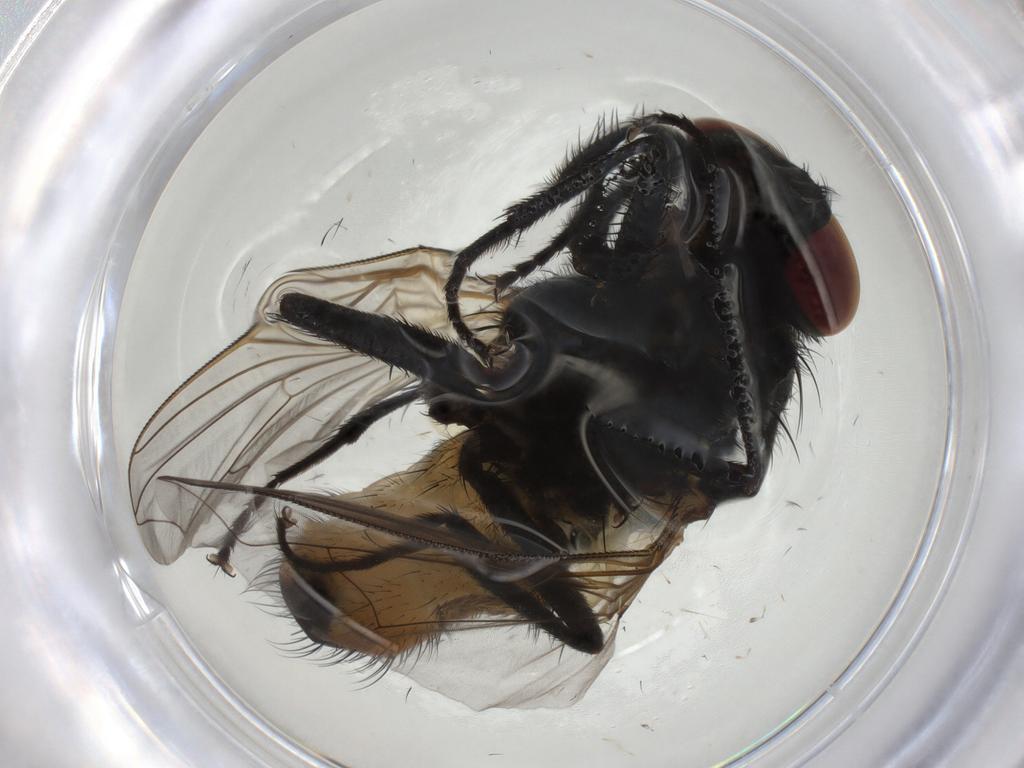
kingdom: Animalia
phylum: Arthropoda
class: Insecta
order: Diptera
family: Muscidae
